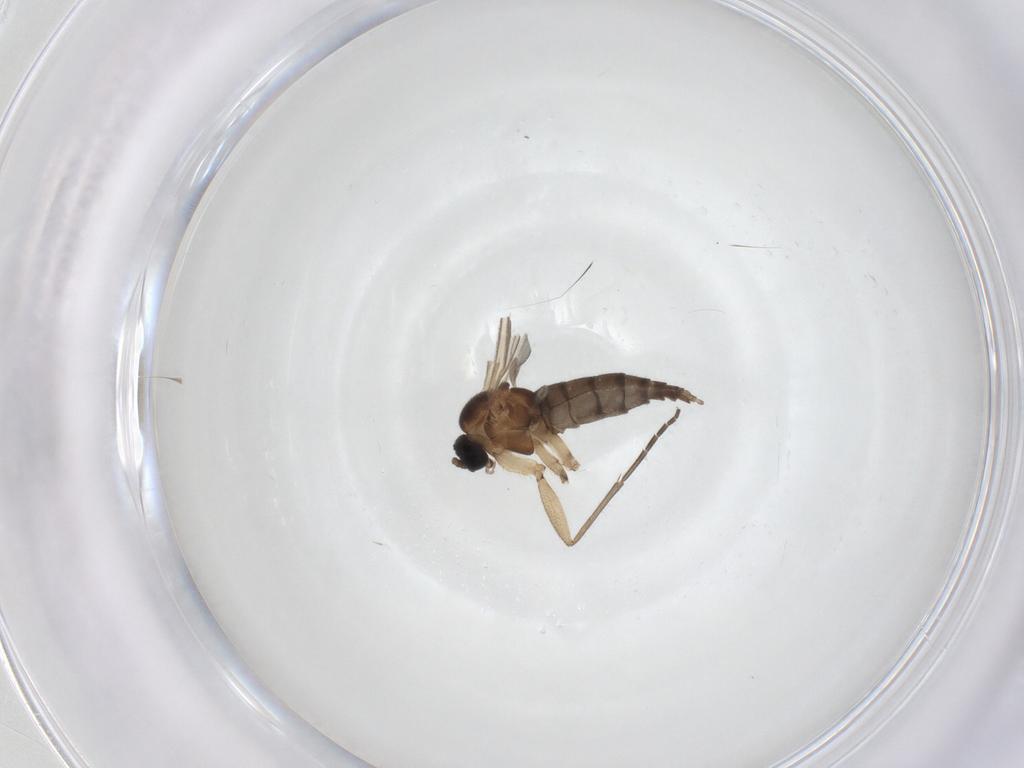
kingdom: Animalia
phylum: Arthropoda
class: Insecta
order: Diptera
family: Sciaridae
